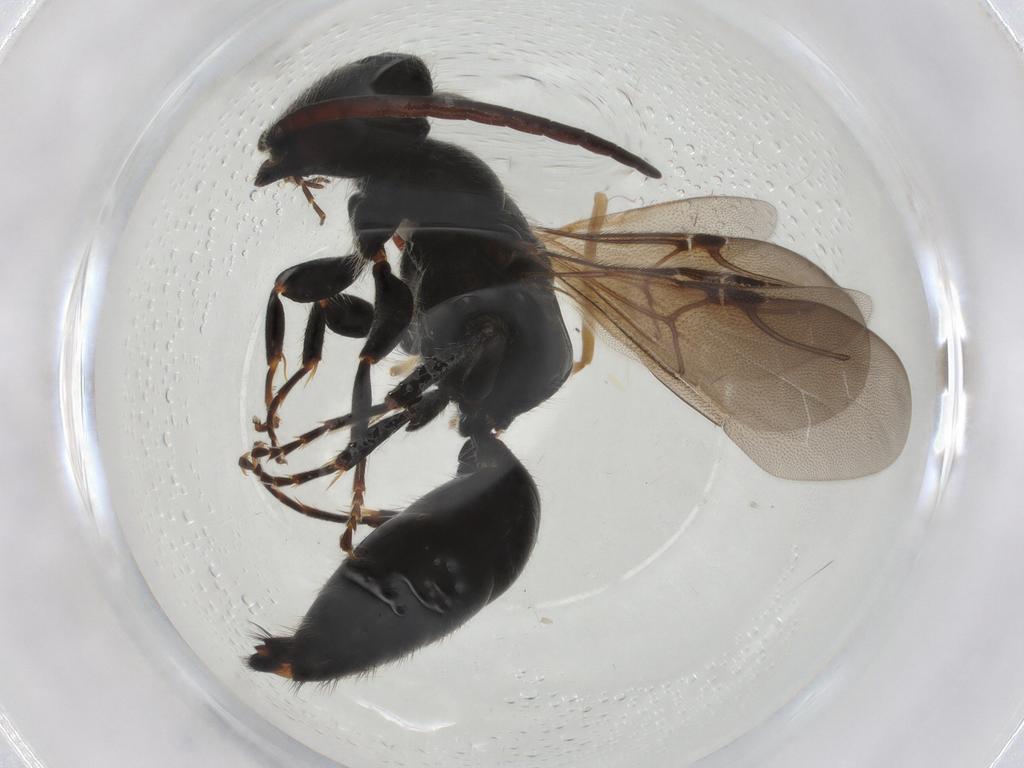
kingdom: Animalia
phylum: Arthropoda
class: Insecta
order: Hymenoptera
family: Bethylidae
